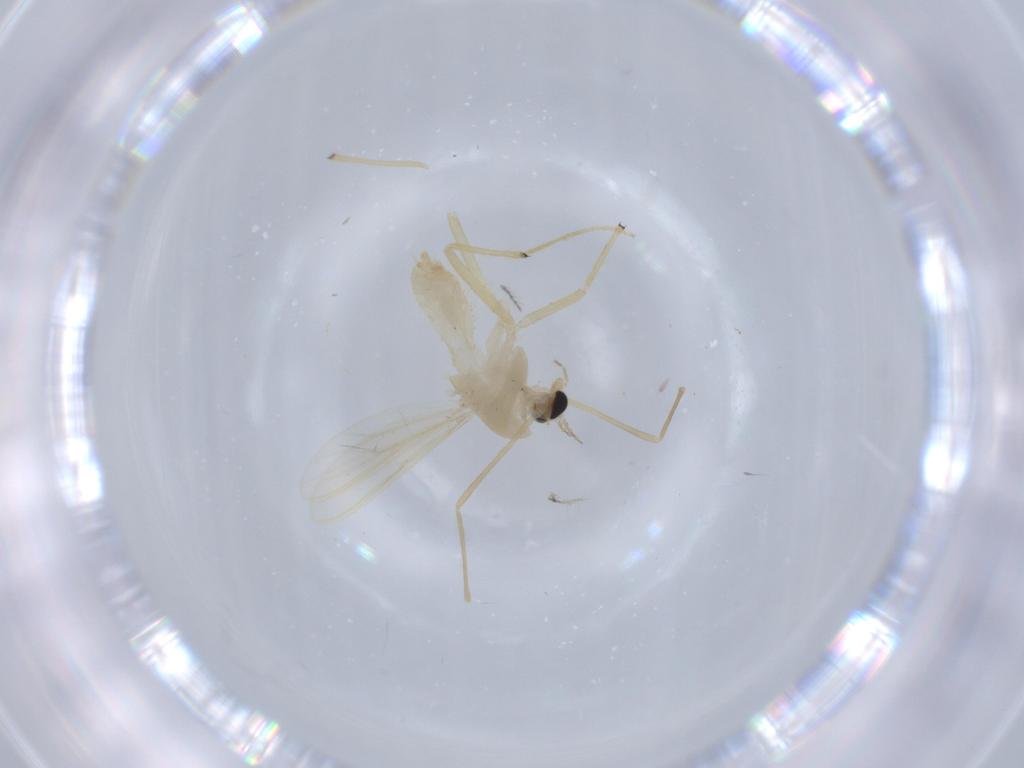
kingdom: Animalia
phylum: Arthropoda
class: Insecta
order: Diptera
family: Chironomidae
